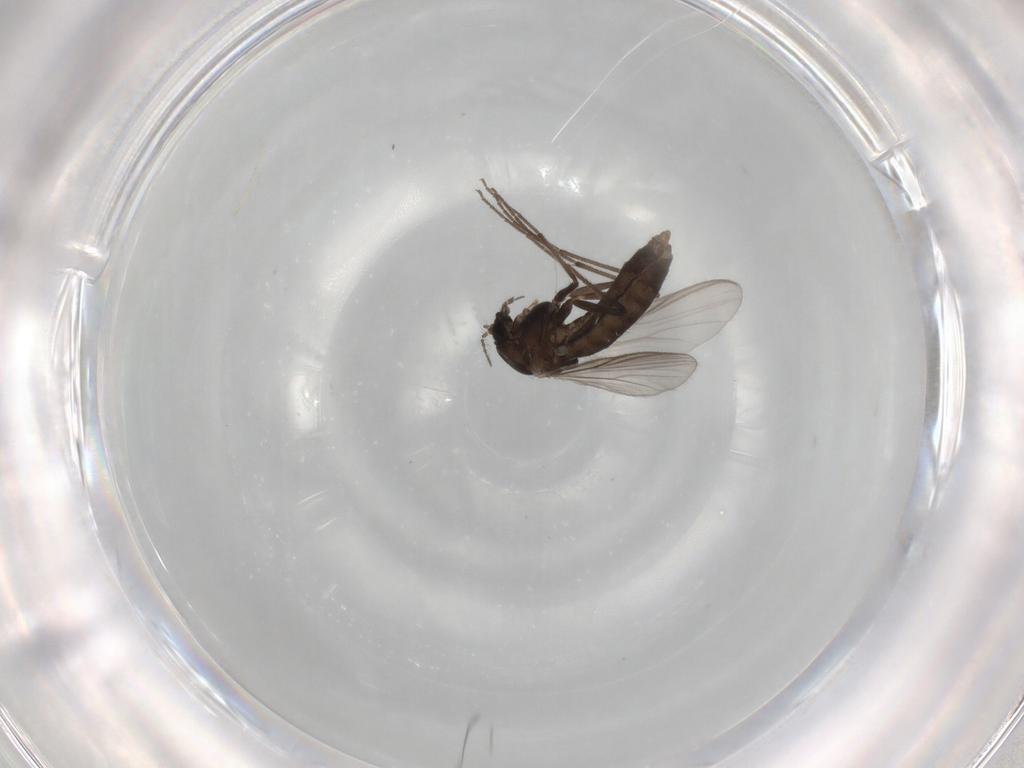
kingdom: Animalia
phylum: Arthropoda
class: Insecta
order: Diptera
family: Chironomidae
